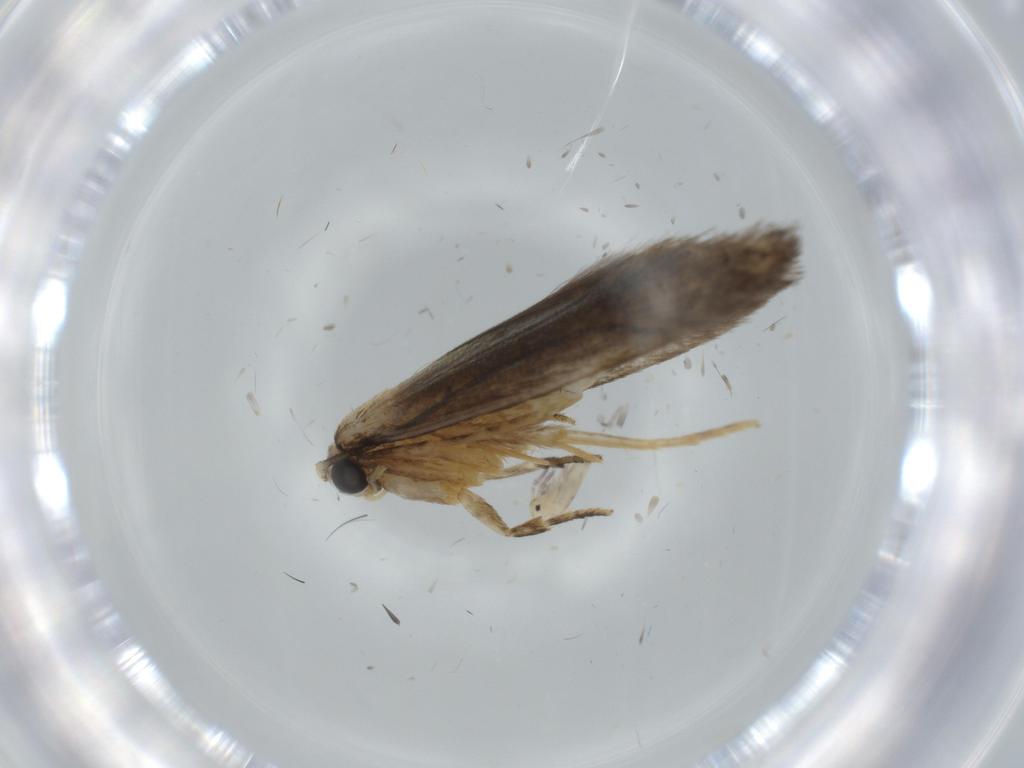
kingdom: Animalia
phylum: Arthropoda
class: Insecta
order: Lepidoptera
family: Tineidae
